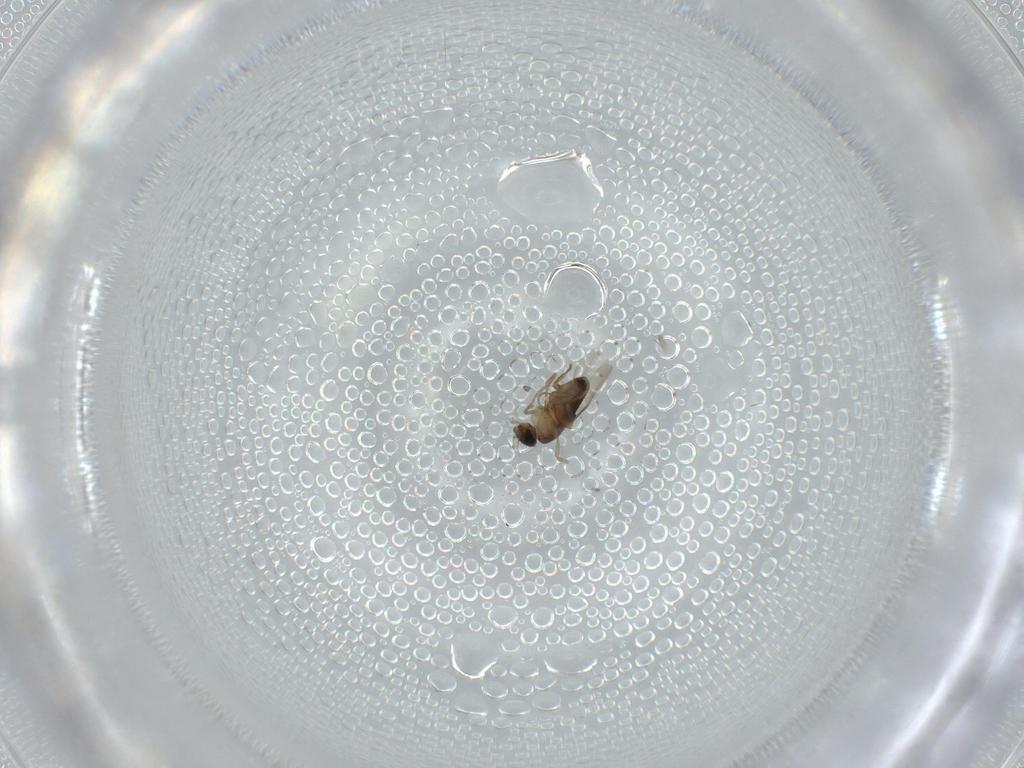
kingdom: Animalia
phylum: Arthropoda
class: Insecta
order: Diptera
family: Phoridae
